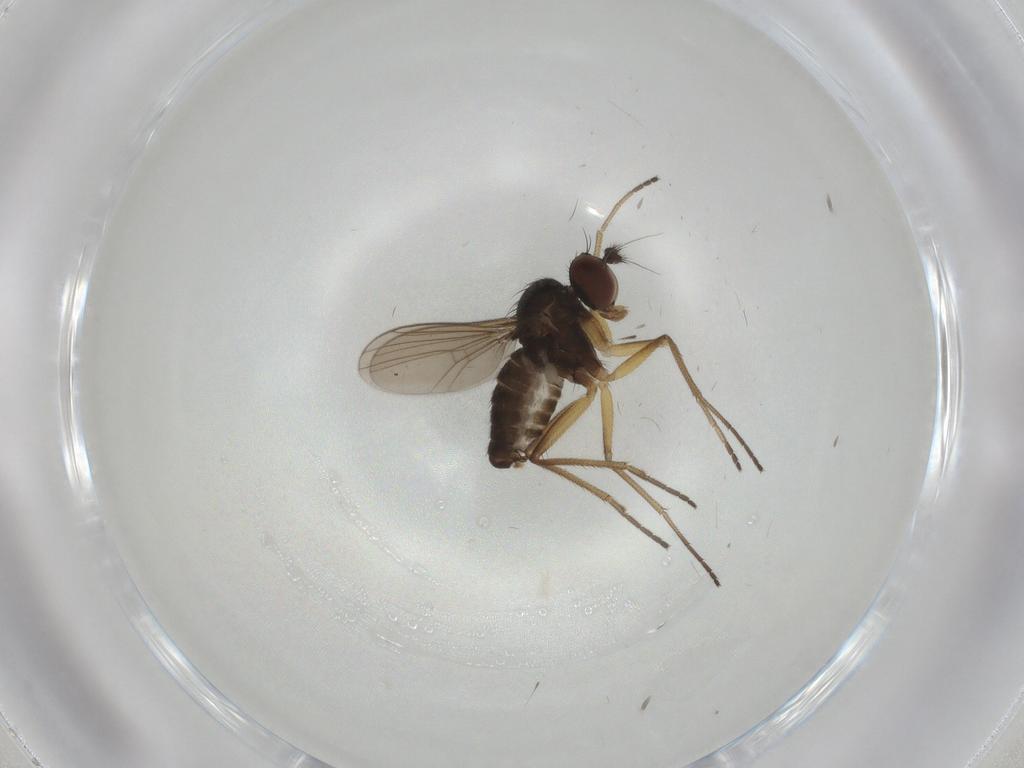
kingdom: Animalia
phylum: Arthropoda
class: Insecta
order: Diptera
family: Dolichopodidae
